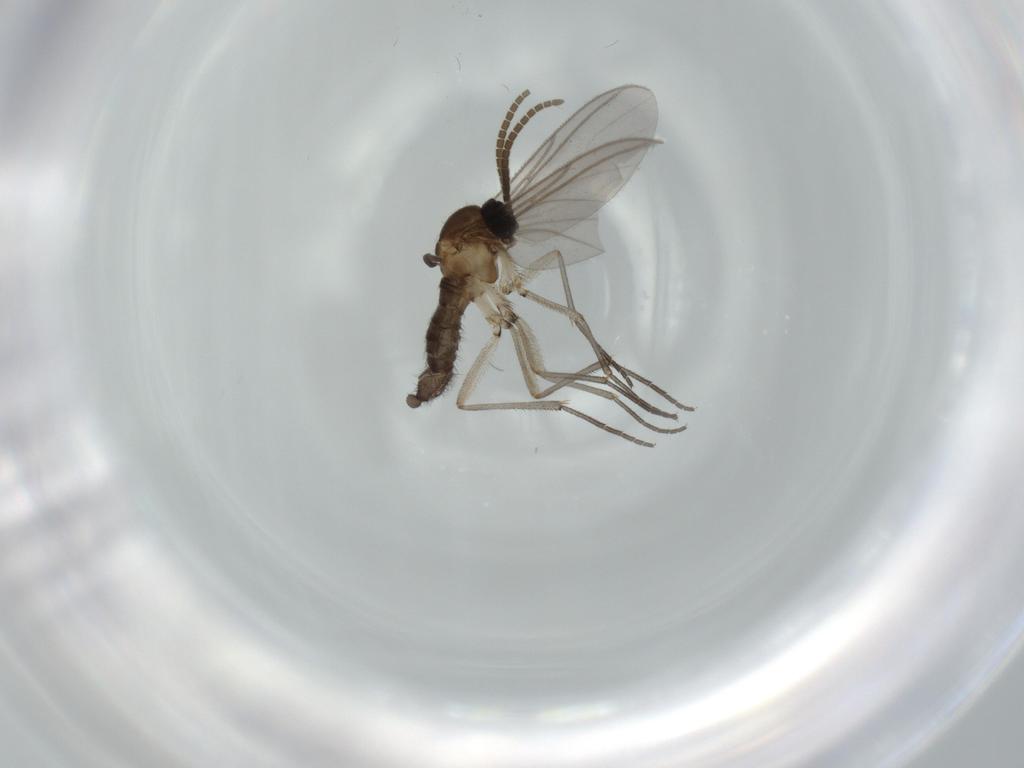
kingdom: Animalia
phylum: Arthropoda
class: Insecta
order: Diptera
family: Sciaridae
